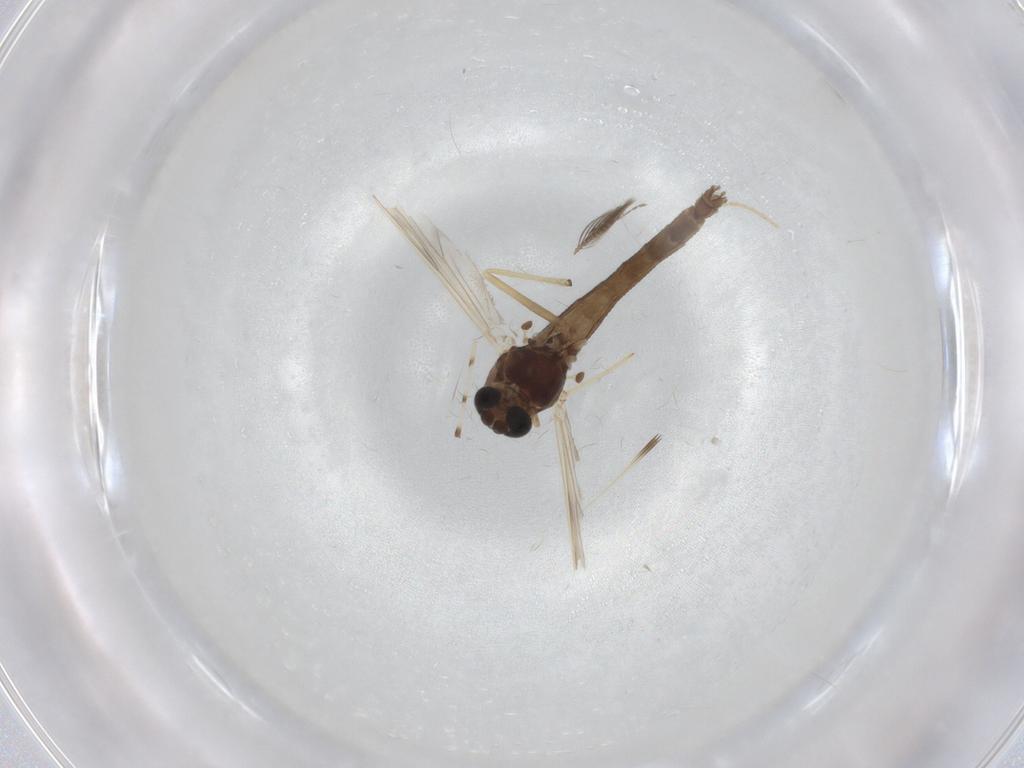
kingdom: Animalia
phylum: Arthropoda
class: Insecta
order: Diptera
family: Chironomidae
